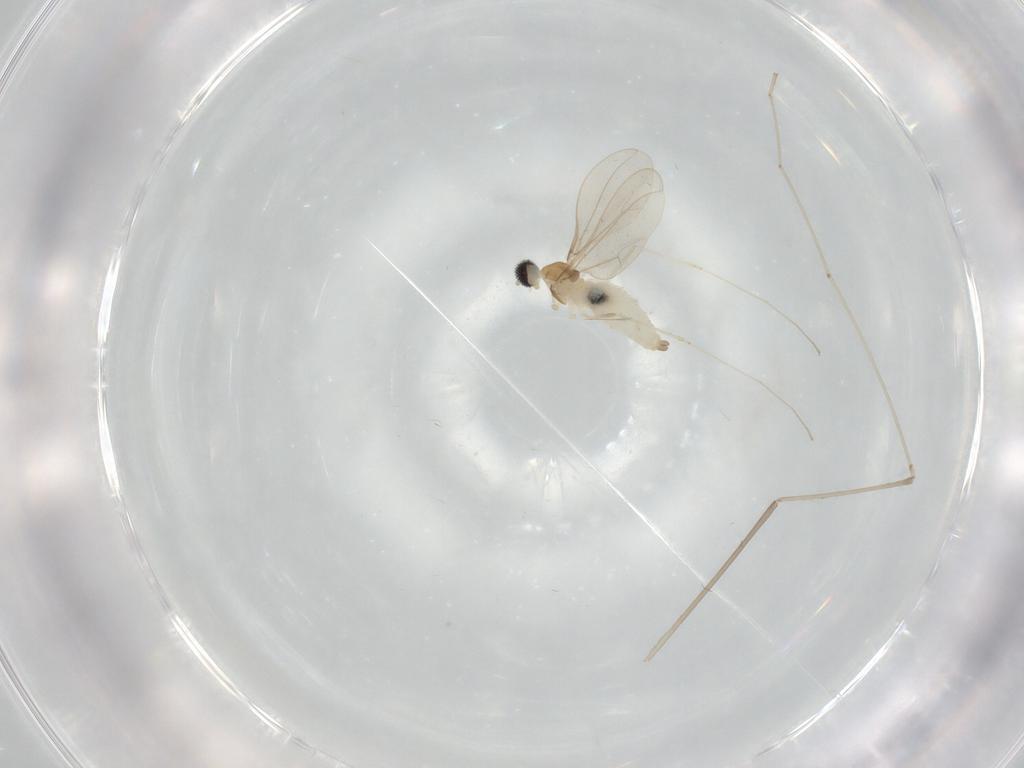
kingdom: Animalia
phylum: Arthropoda
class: Insecta
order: Diptera
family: Cecidomyiidae
